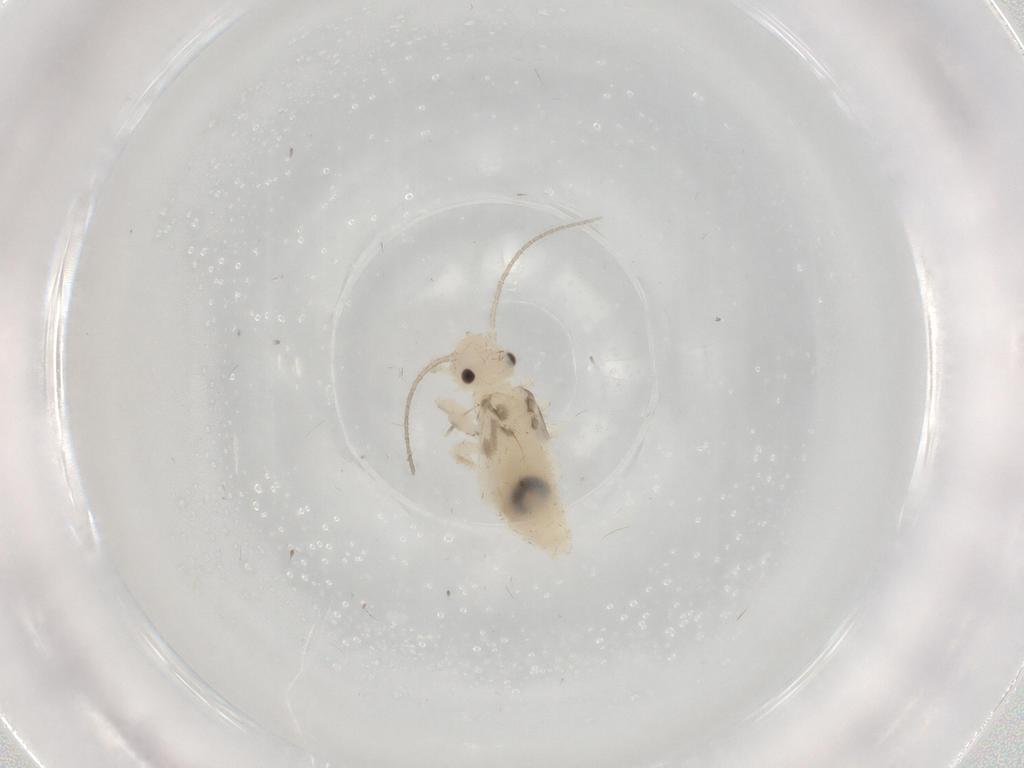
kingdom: Animalia
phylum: Arthropoda
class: Insecta
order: Psocodea
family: Caeciliusidae
